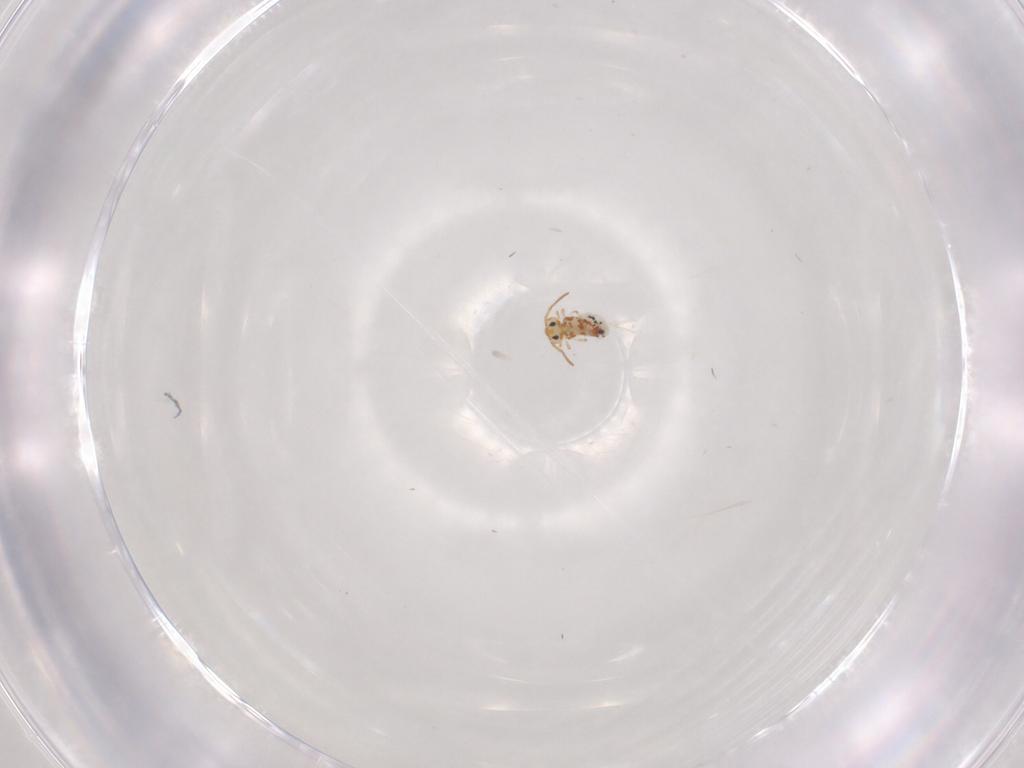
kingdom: Animalia
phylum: Arthropoda
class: Collembola
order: Symphypleona
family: Bourletiellidae
